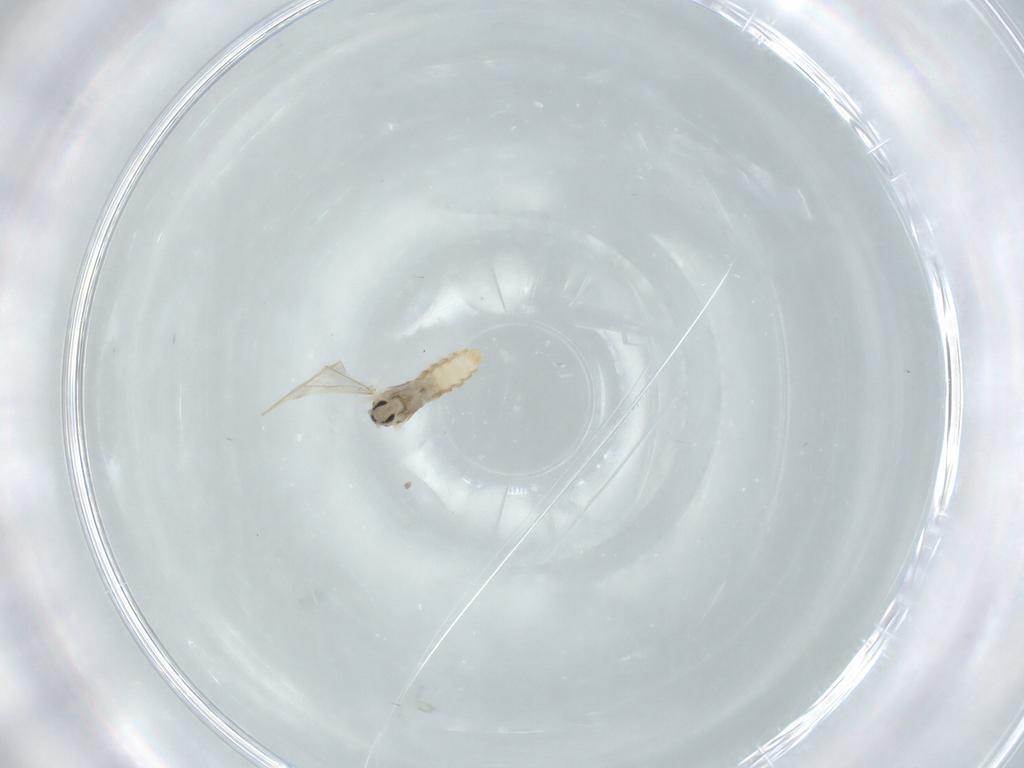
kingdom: Animalia
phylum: Arthropoda
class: Insecta
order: Diptera
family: Cecidomyiidae
